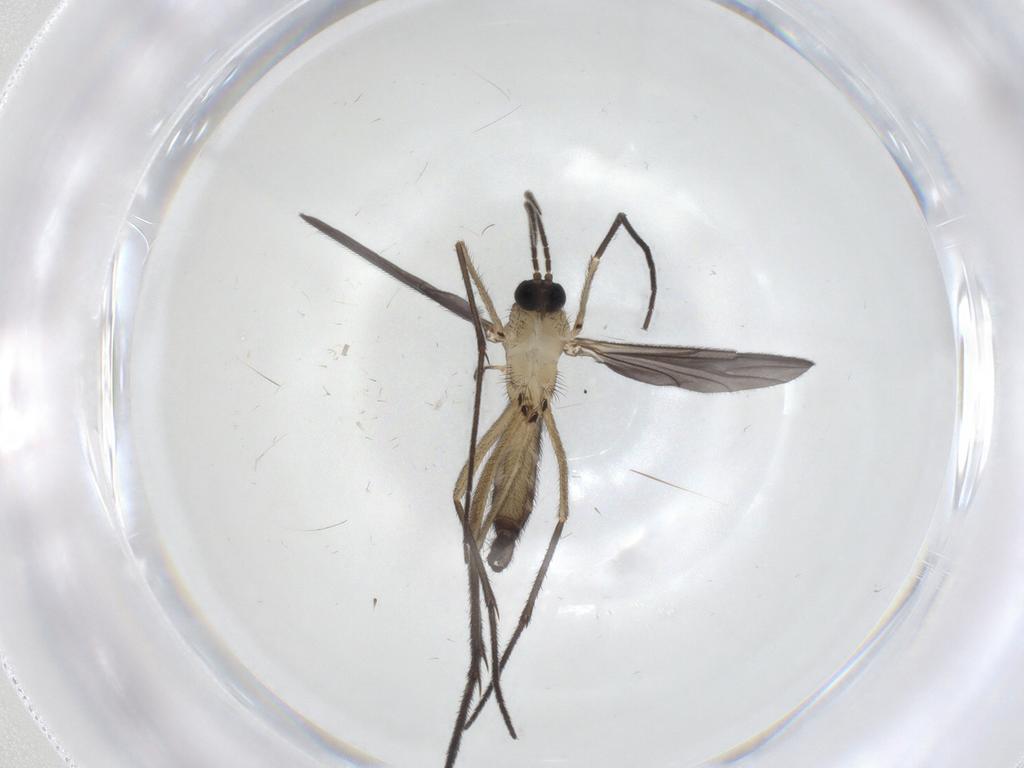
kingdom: Animalia
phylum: Arthropoda
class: Insecta
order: Diptera
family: Sciaridae
